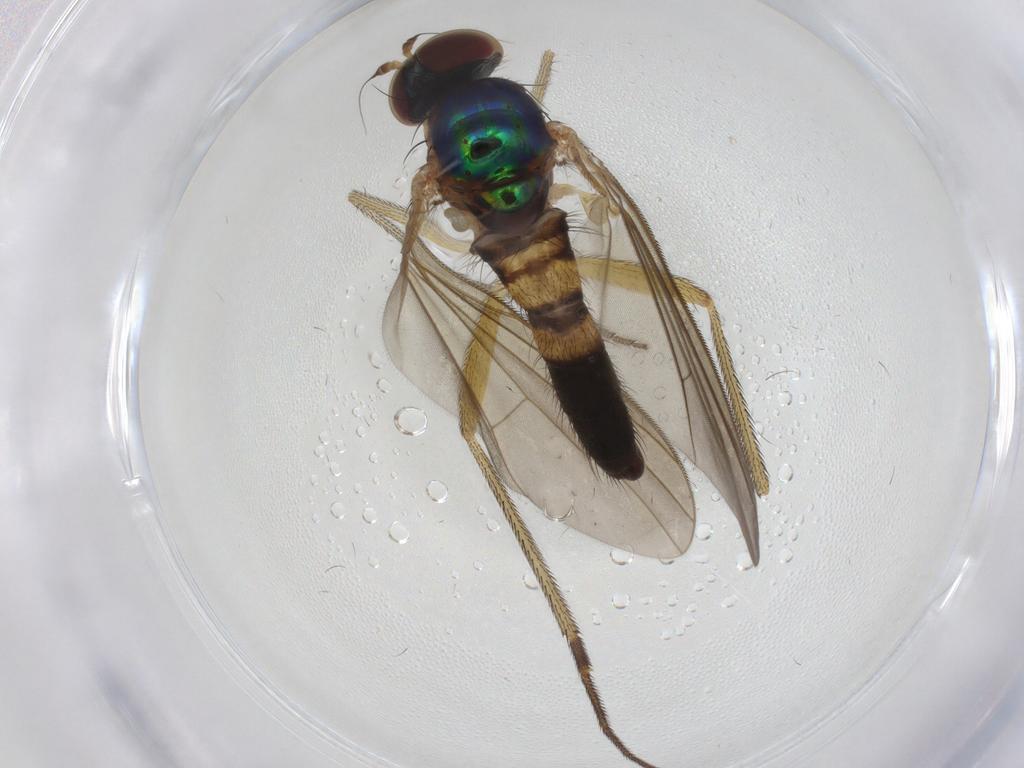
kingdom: Animalia
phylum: Arthropoda
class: Insecta
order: Diptera
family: Dolichopodidae
